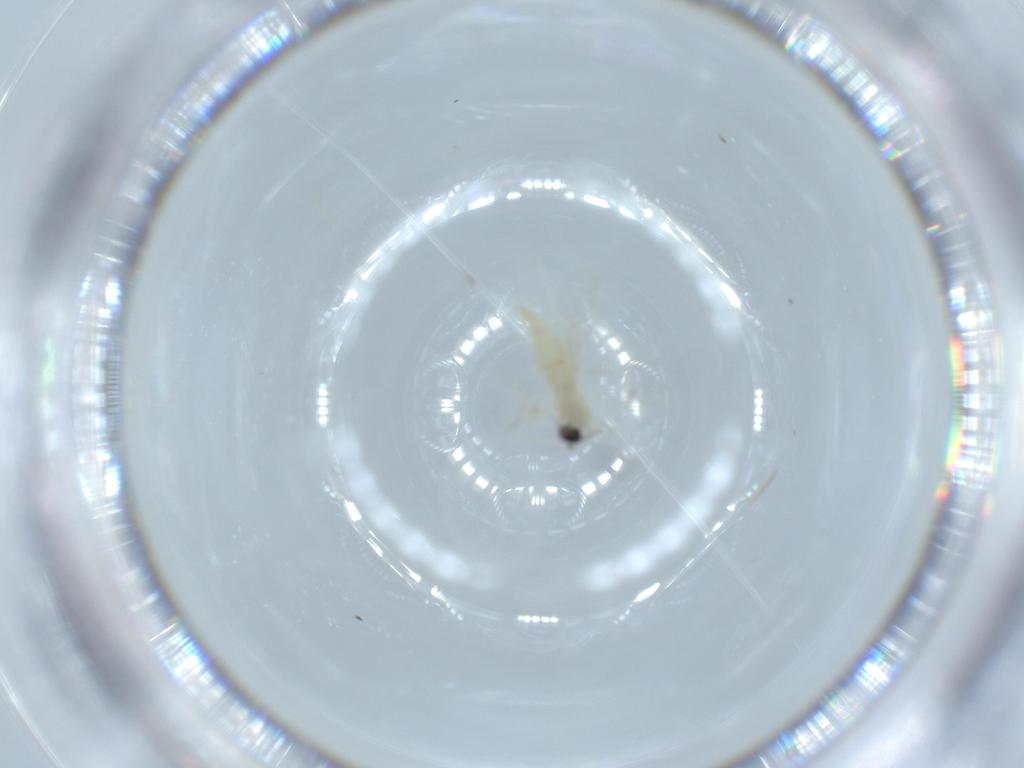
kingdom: Animalia
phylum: Arthropoda
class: Insecta
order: Diptera
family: Cecidomyiidae
